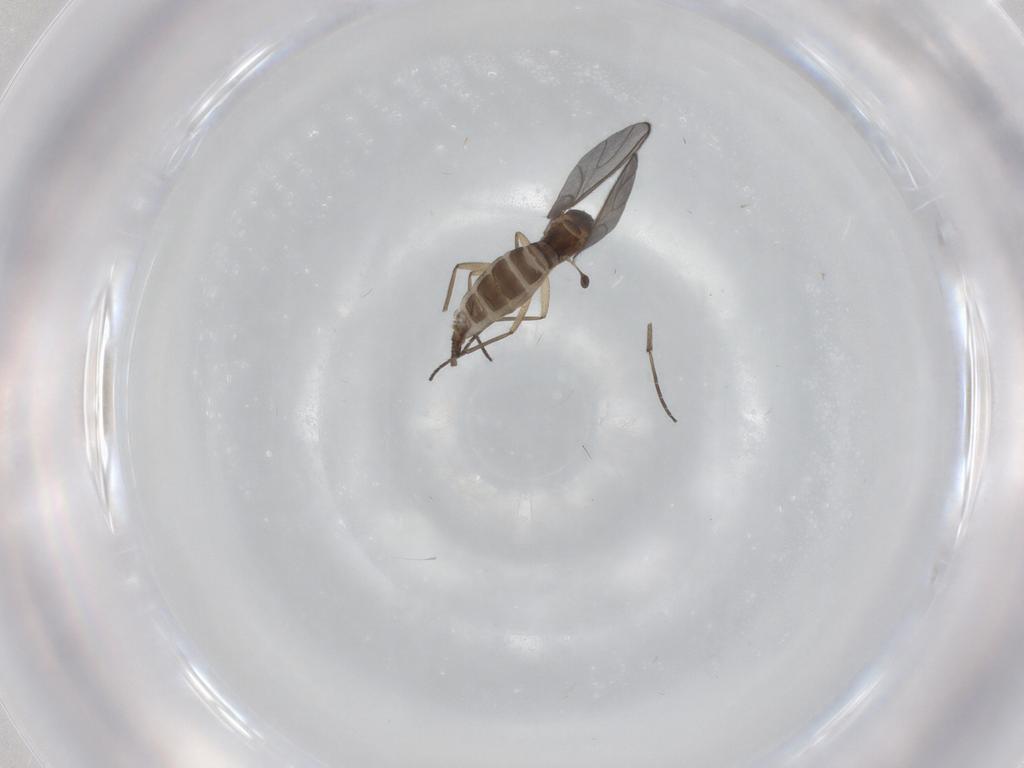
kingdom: Animalia
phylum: Arthropoda
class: Insecta
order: Diptera
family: Sciaridae
